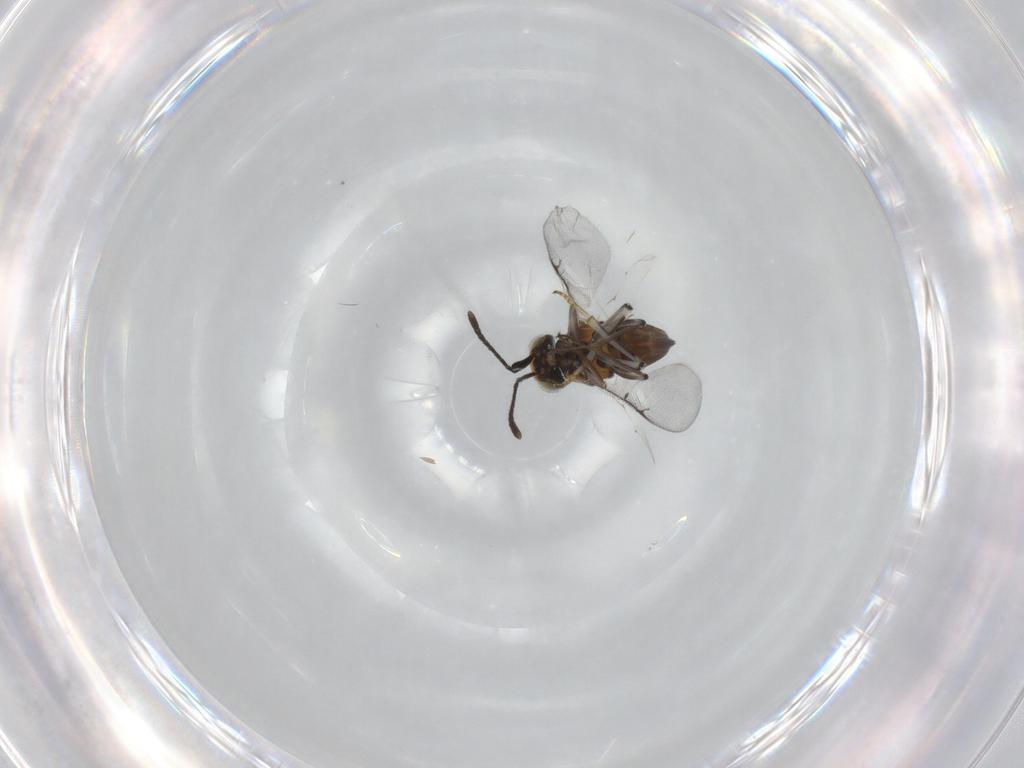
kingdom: Animalia
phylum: Arthropoda
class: Insecta
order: Hymenoptera
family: Encyrtidae
